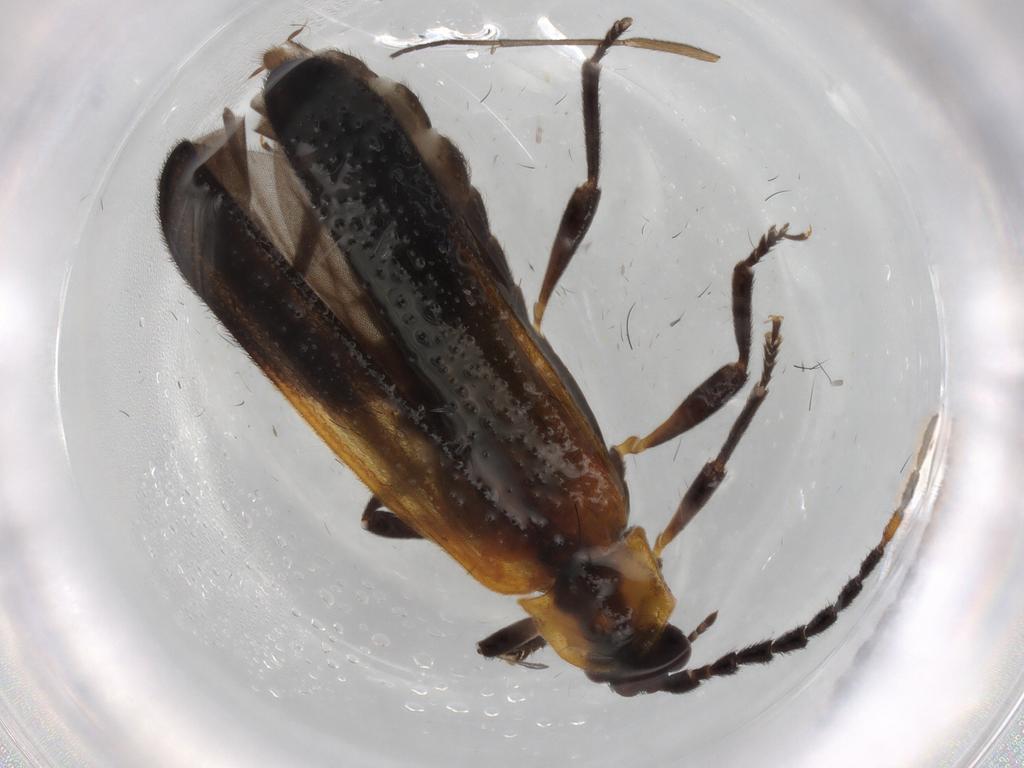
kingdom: Animalia
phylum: Arthropoda
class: Insecta
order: Coleoptera
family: Lycidae
